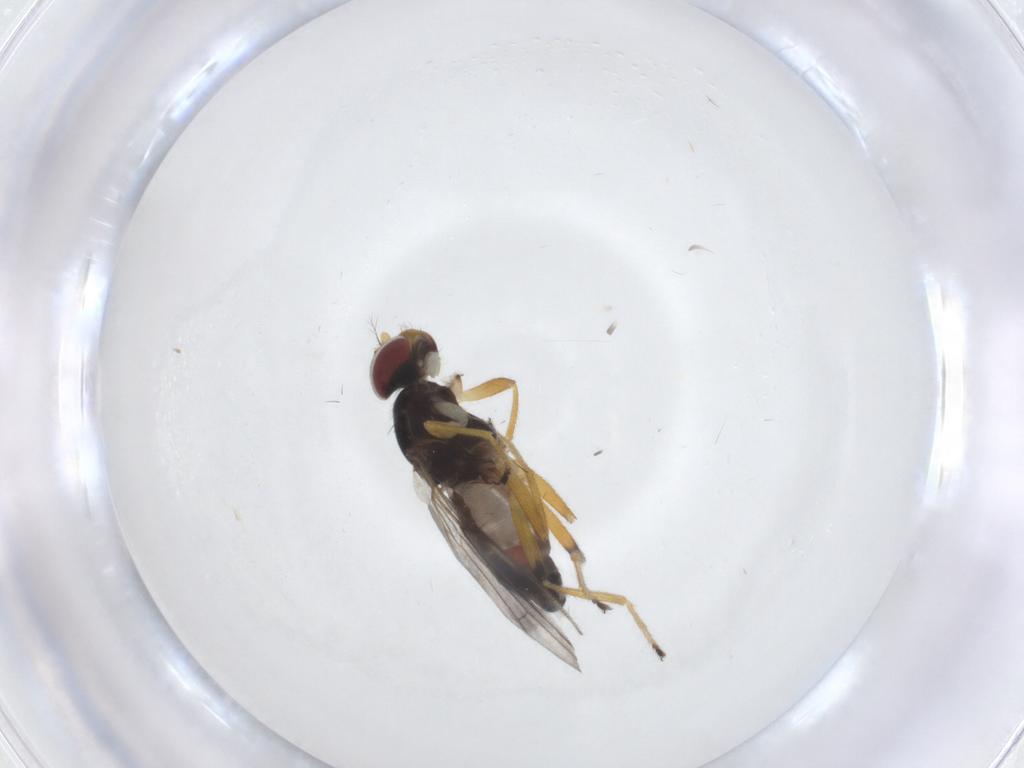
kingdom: Animalia
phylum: Arthropoda
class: Insecta
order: Diptera
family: Periscelididae
